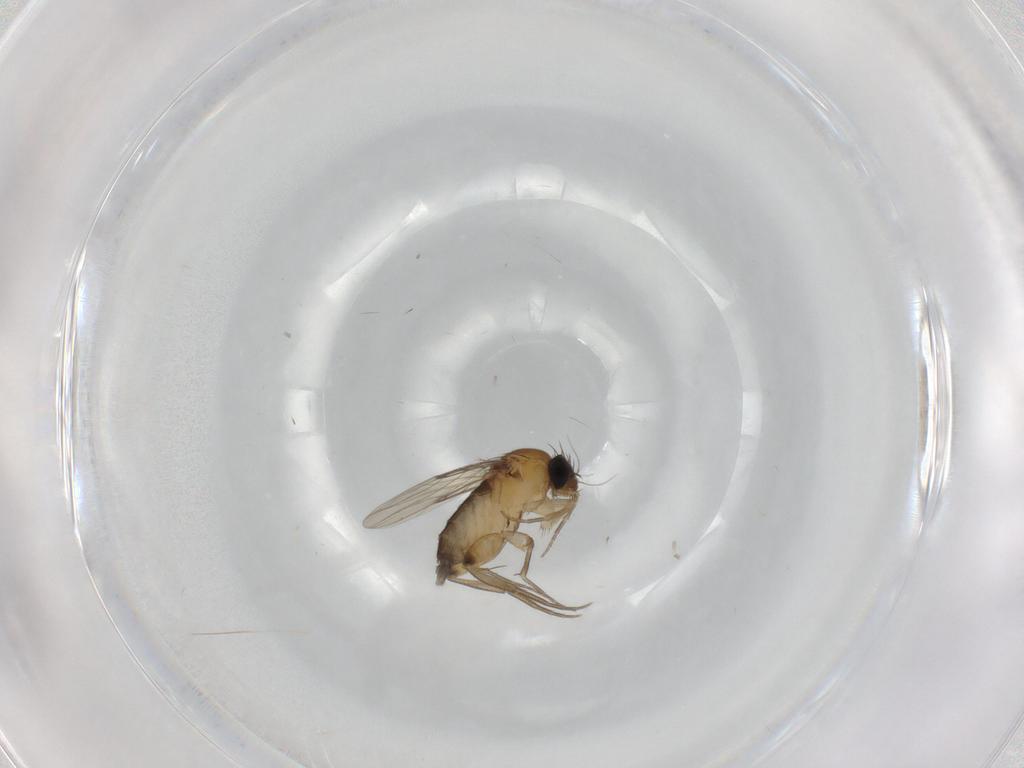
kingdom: Animalia
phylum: Arthropoda
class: Insecta
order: Diptera
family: Phoridae
